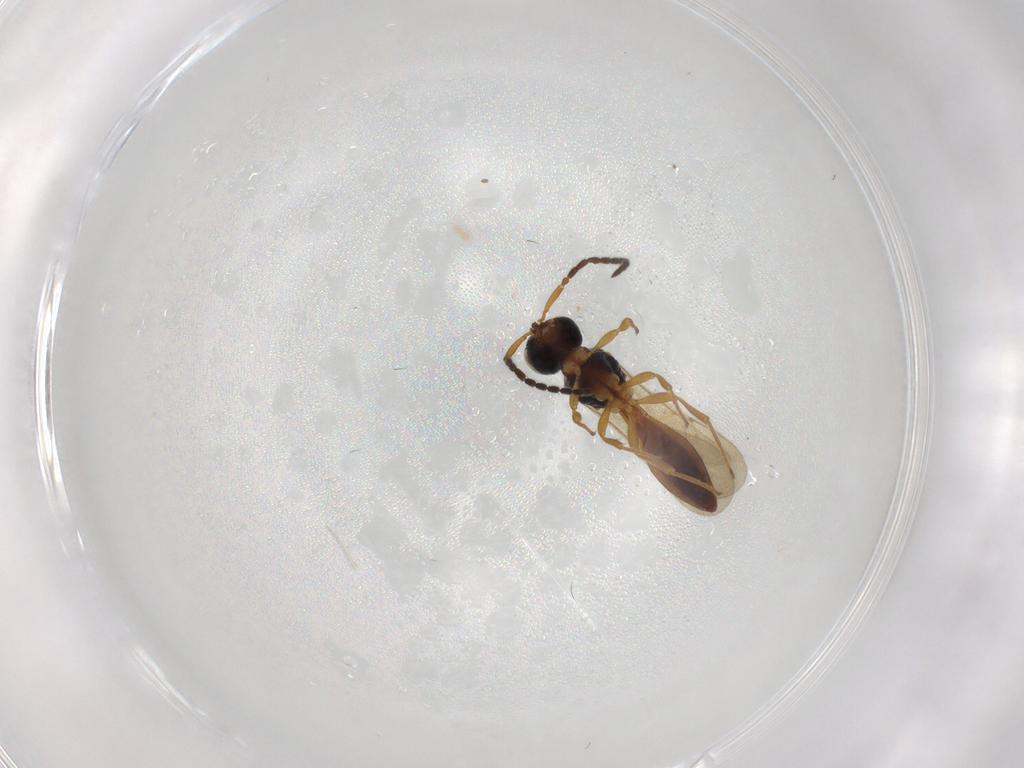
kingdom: Animalia
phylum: Arthropoda
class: Insecta
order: Hymenoptera
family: Scelionidae
